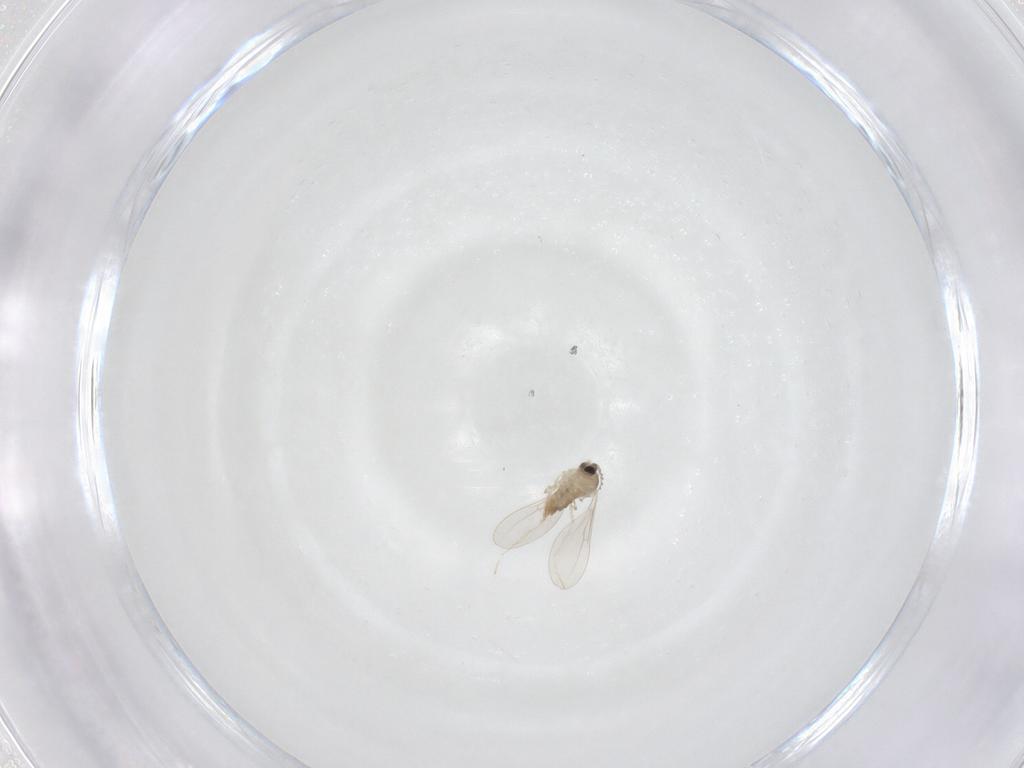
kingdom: Animalia
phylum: Arthropoda
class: Insecta
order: Diptera
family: Cecidomyiidae
